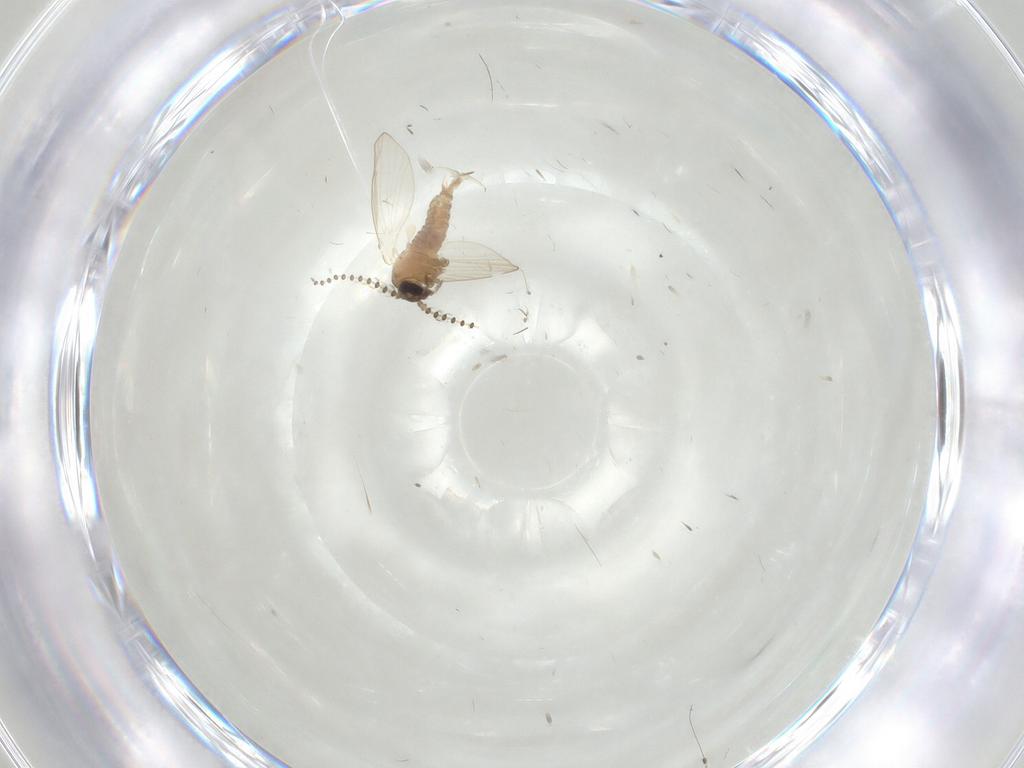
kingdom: Animalia
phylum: Arthropoda
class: Insecta
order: Diptera
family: Psychodidae
